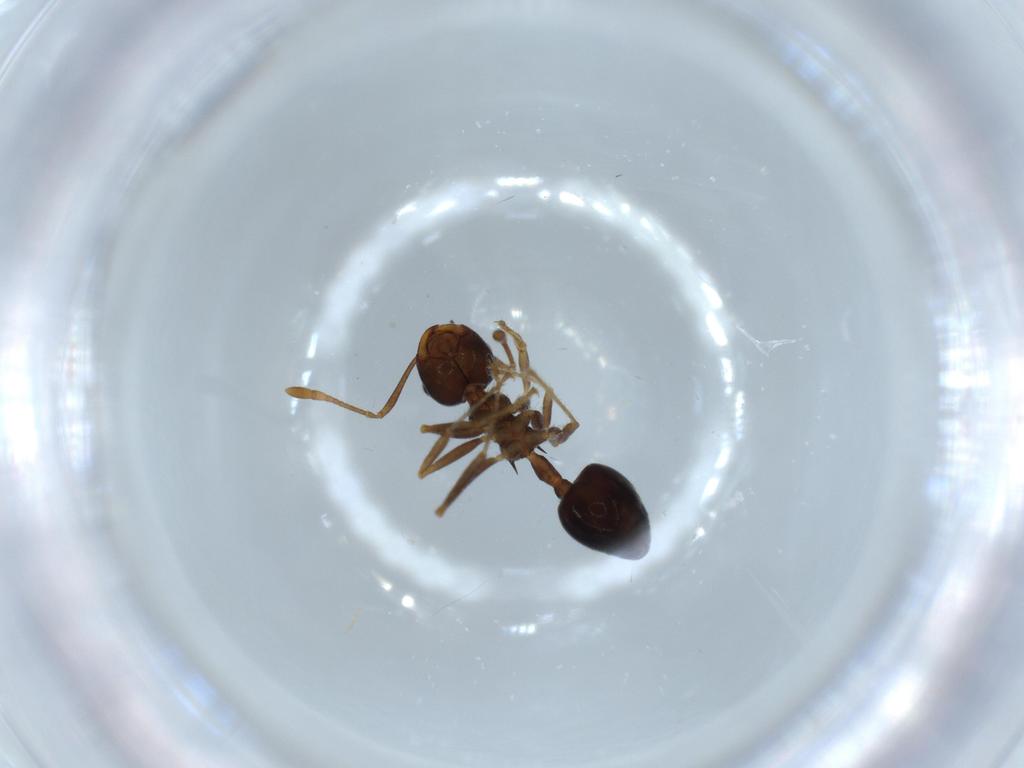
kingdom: Animalia
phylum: Arthropoda
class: Insecta
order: Hymenoptera
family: Formicidae
